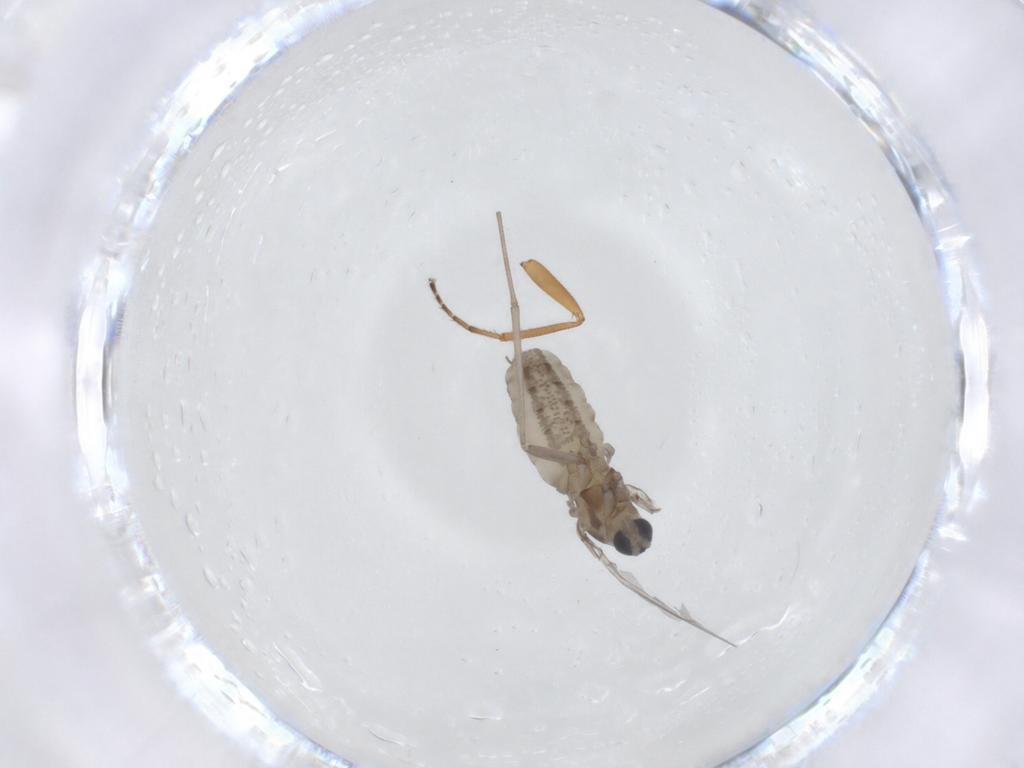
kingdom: Animalia
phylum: Arthropoda
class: Insecta
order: Diptera
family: Cecidomyiidae
